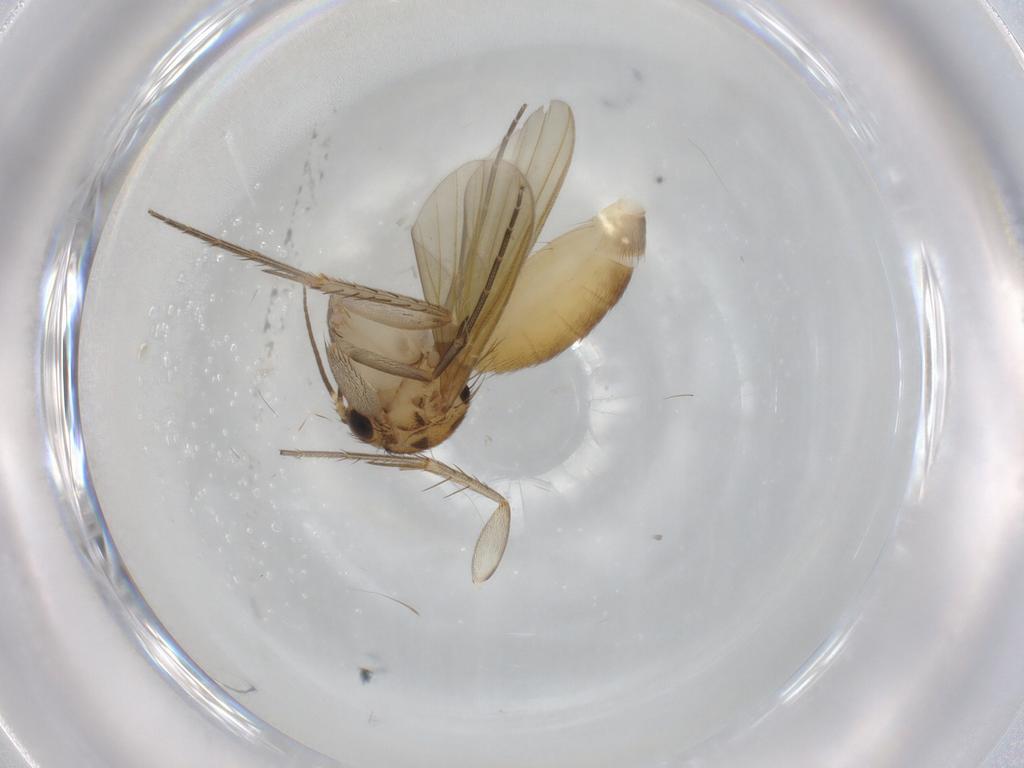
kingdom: Animalia
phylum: Arthropoda
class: Insecta
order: Diptera
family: Mycetophilidae
